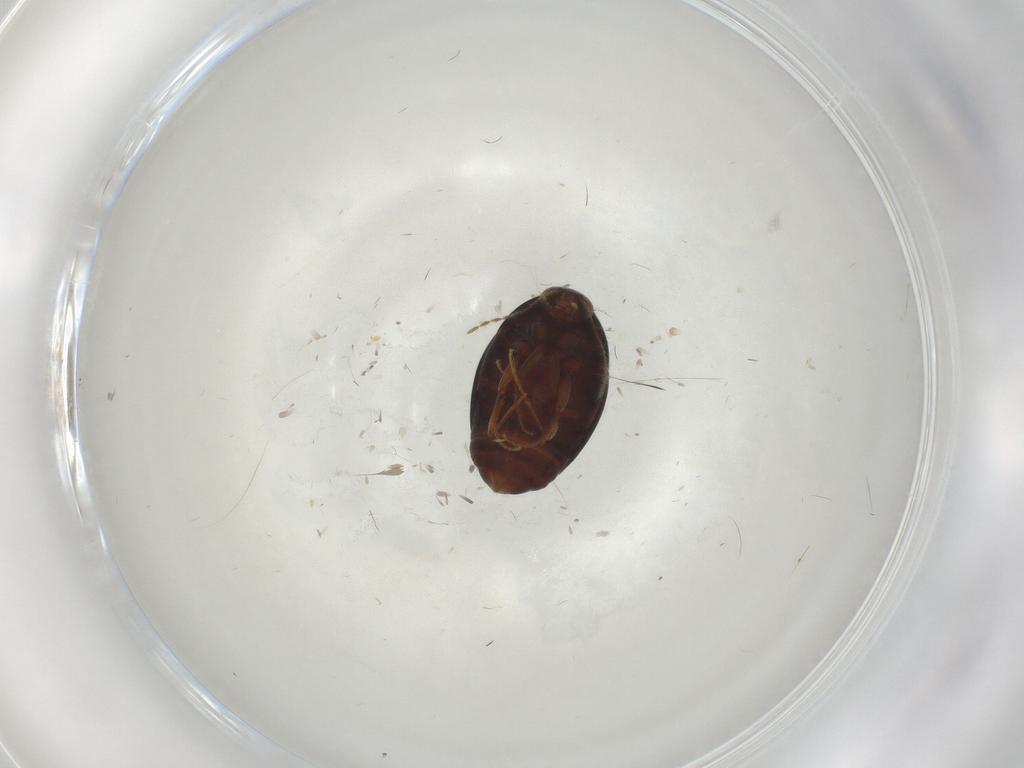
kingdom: Animalia
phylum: Arthropoda
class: Insecta
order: Coleoptera
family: Staphylinidae
